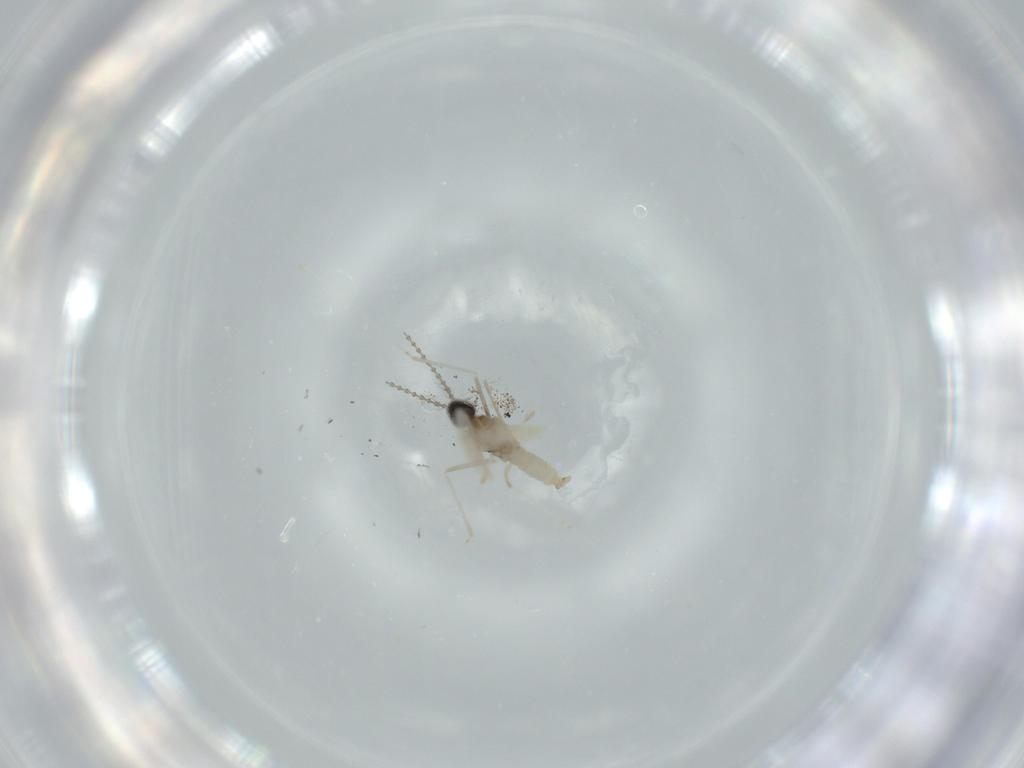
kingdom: Animalia
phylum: Arthropoda
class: Insecta
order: Diptera
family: Cecidomyiidae
